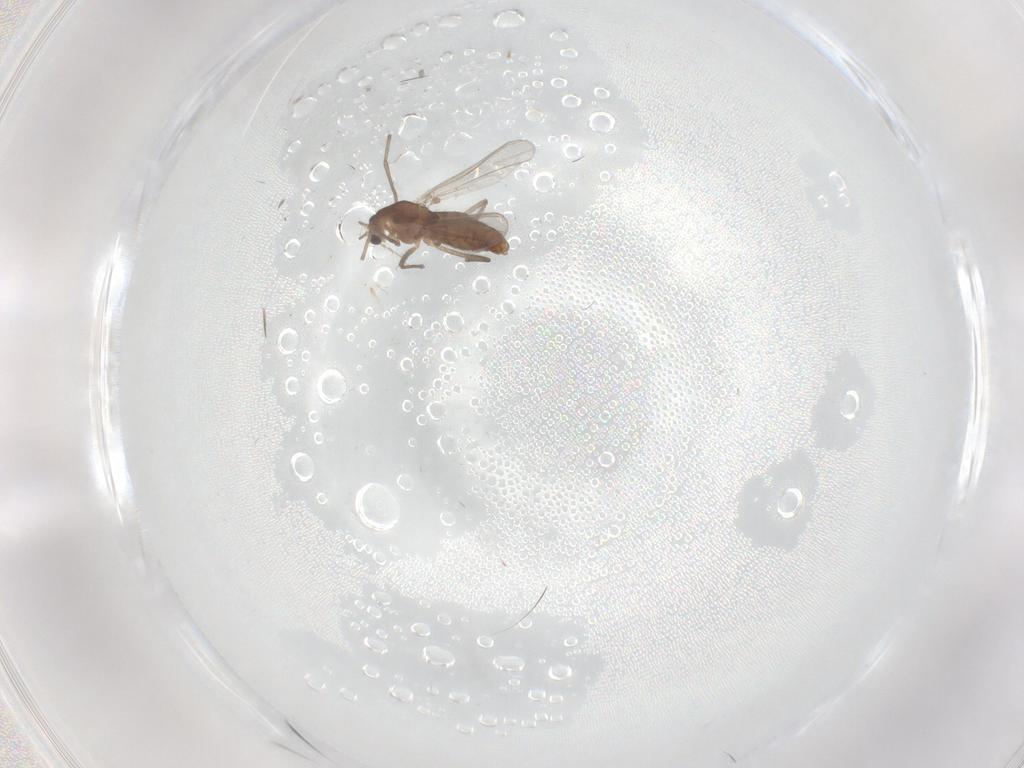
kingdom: Animalia
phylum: Arthropoda
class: Insecta
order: Diptera
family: Chironomidae
